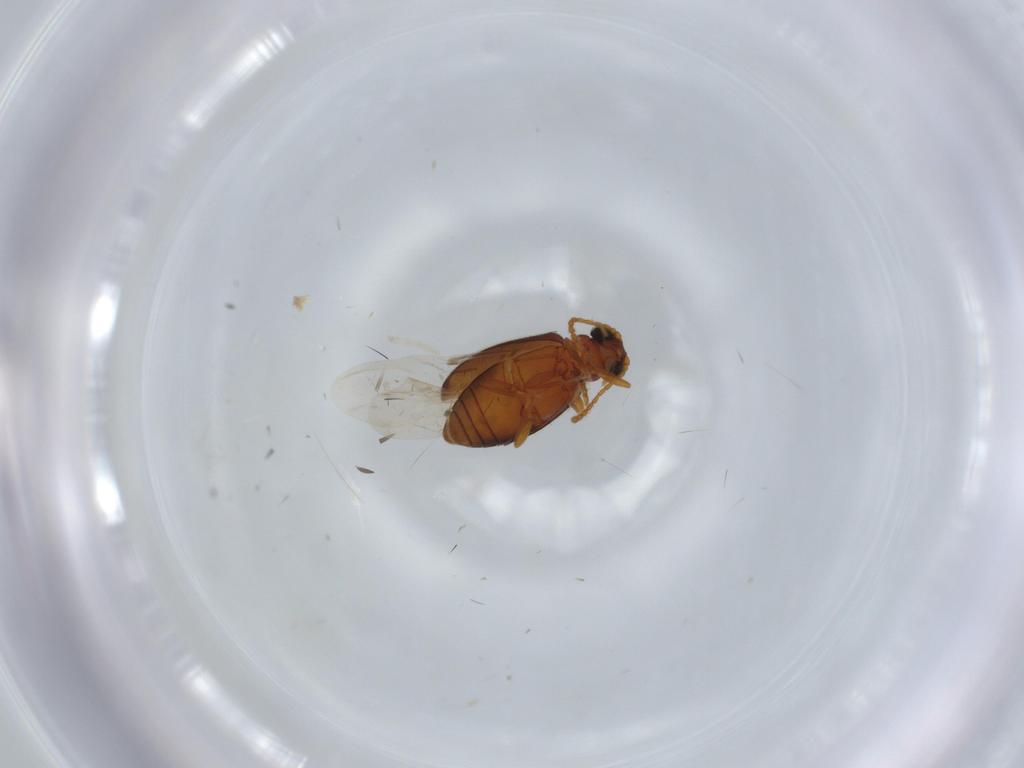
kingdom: Animalia
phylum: Arthropoda
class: Insecta
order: Coleoptera
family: Aderidae
